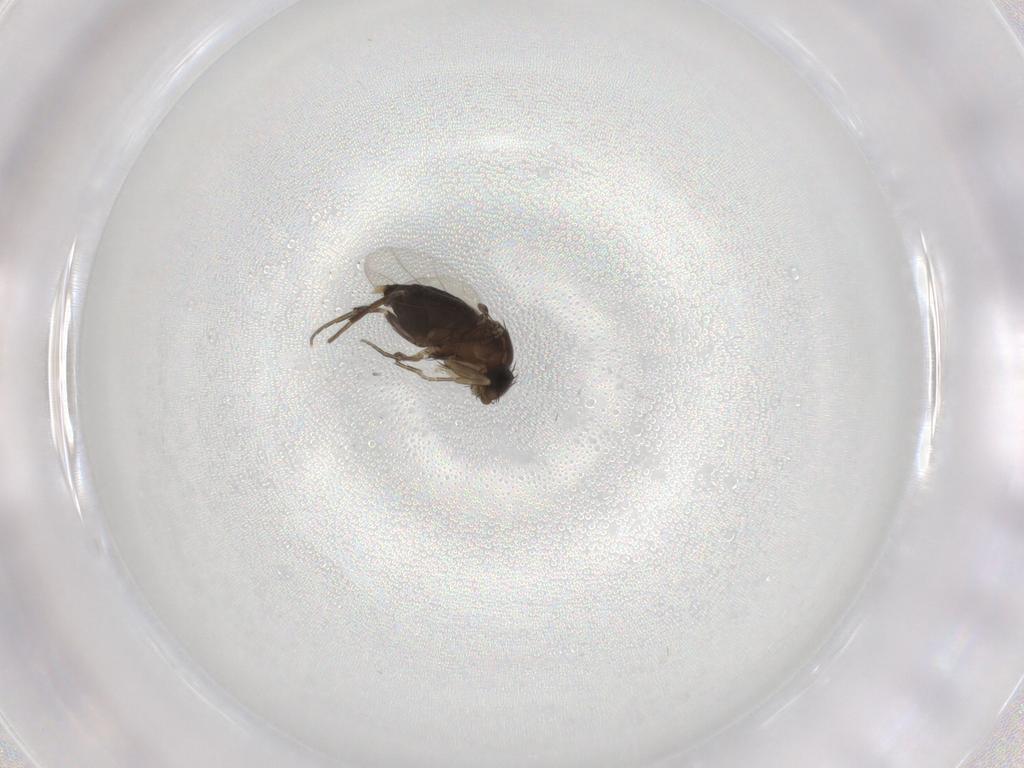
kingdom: Animalia
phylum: Arthropoda
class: Insecta
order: Diptera
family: Phoridae
